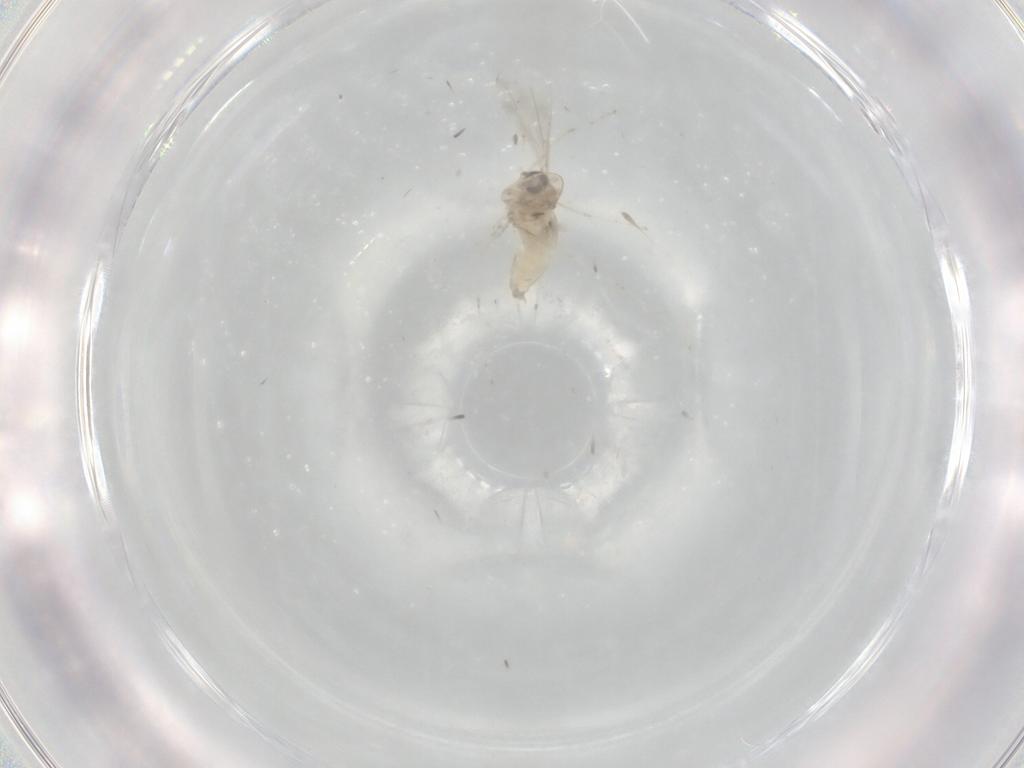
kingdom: Animalia
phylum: Arthropoda
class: Insecta
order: Diptera
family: Cecidomyiidae
